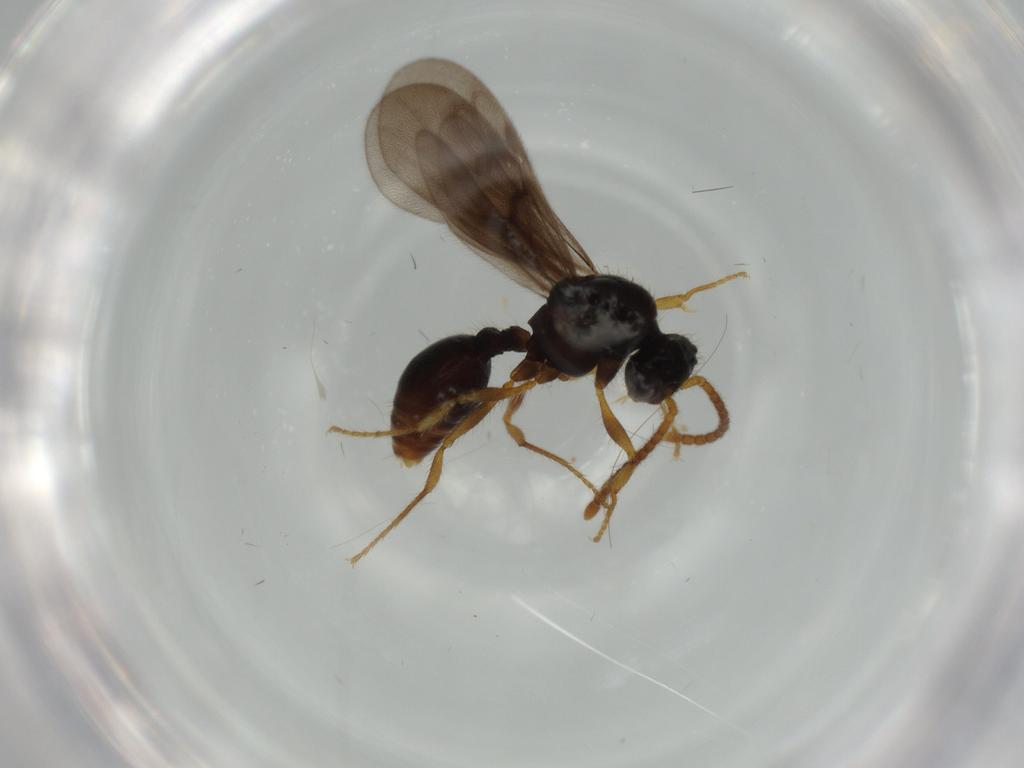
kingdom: Animalia
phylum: Arthropoda
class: Insecta
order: Hymenoptera
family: Formicidae
